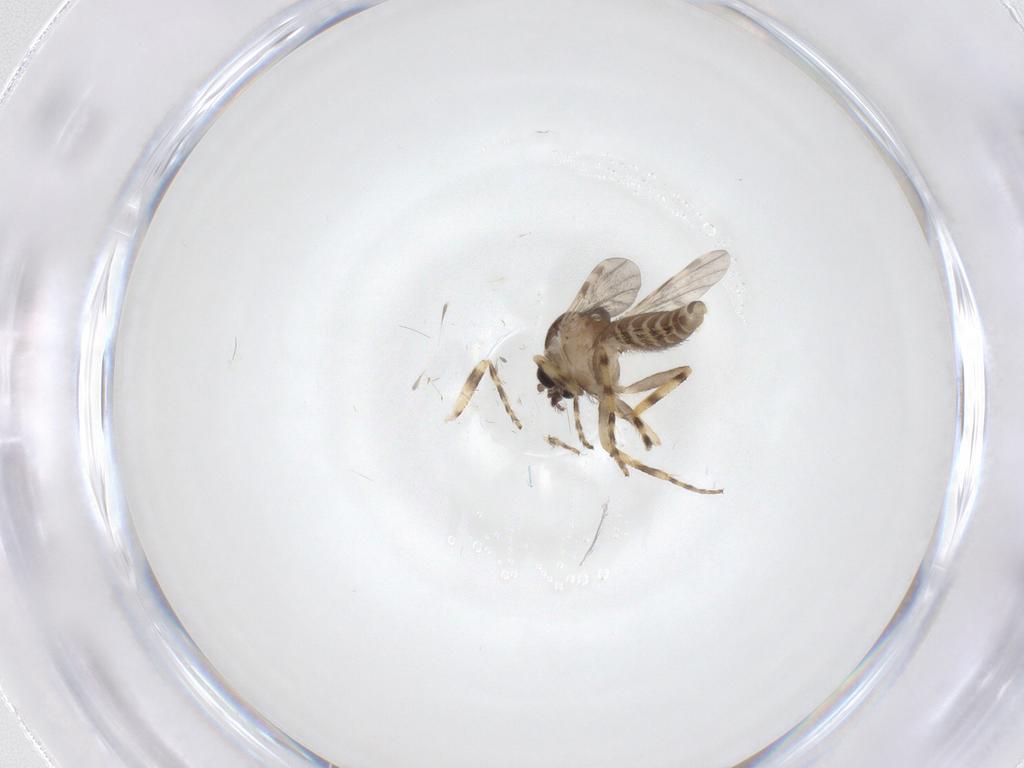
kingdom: Animalia
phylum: Arthropoda
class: Insecta
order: Diptera
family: Ceratopogonidae
